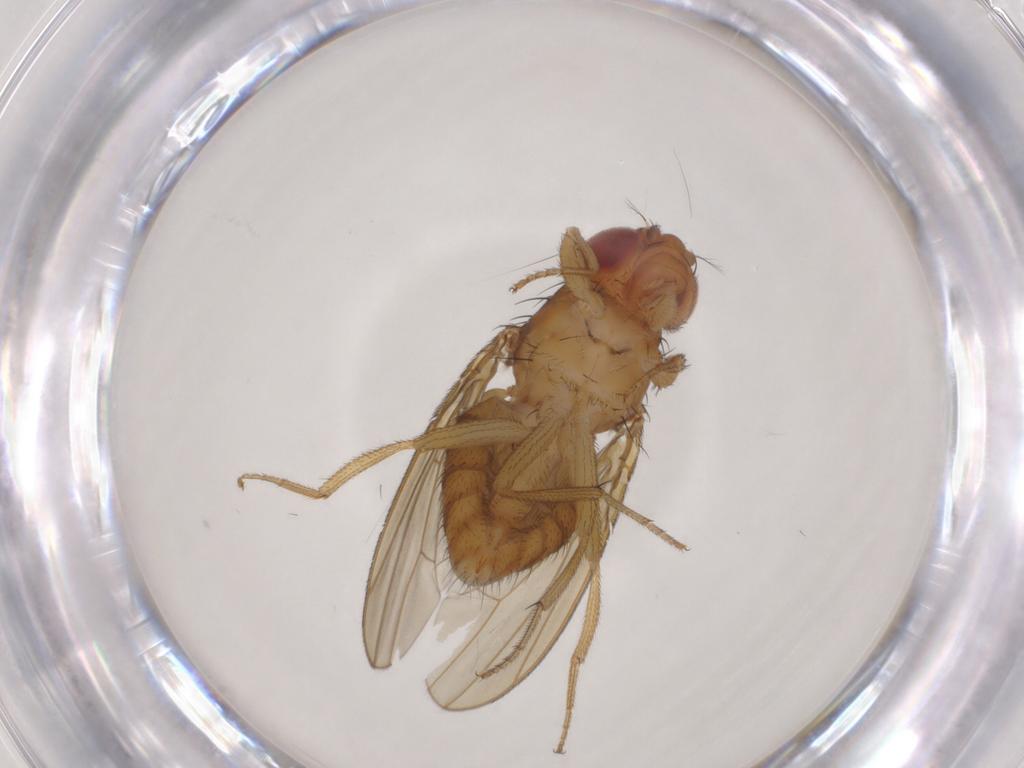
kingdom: Animalia
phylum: Arthropoda
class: Insecta
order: Diptera
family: Drosophilidae
